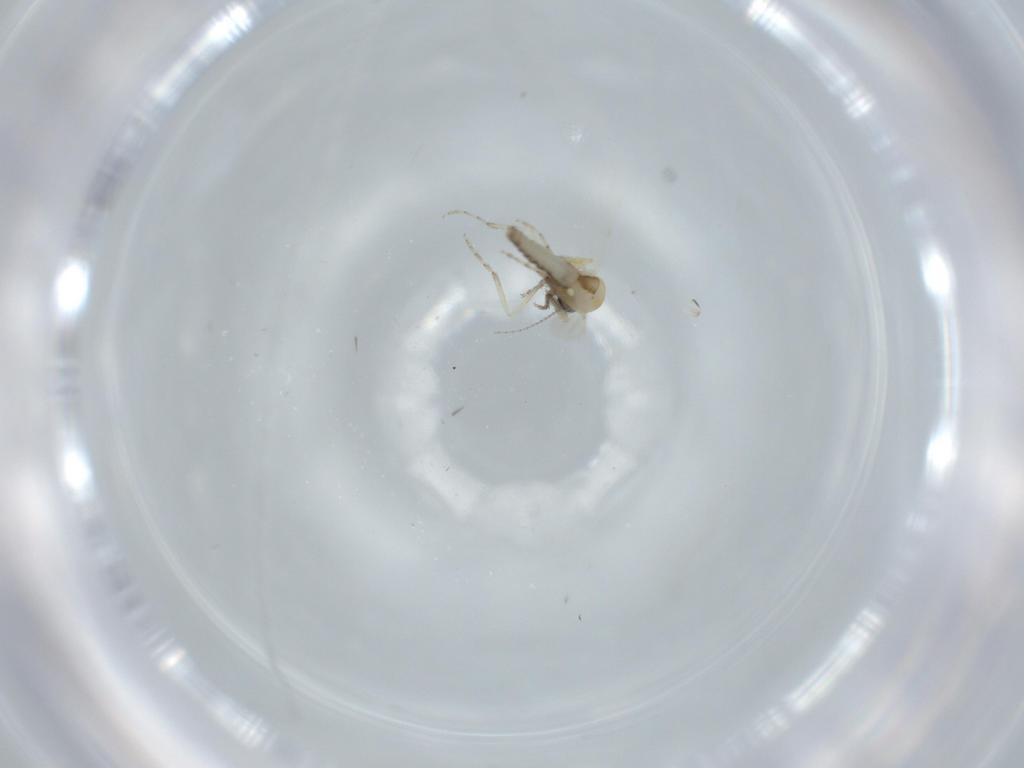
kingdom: Animalia
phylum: Arthropoda
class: Insecta
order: Diptera
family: Ceratopogonidae
